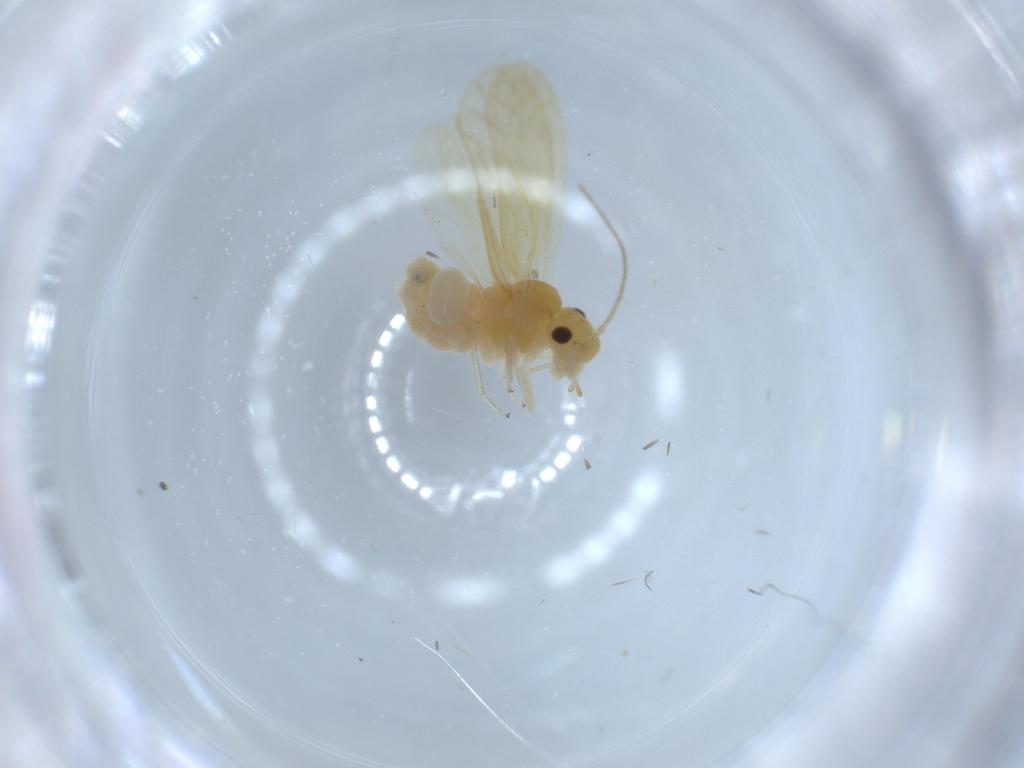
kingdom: Animalia
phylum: Arthropoda
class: Insecta
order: Psocodea
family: Caeciliusidae
